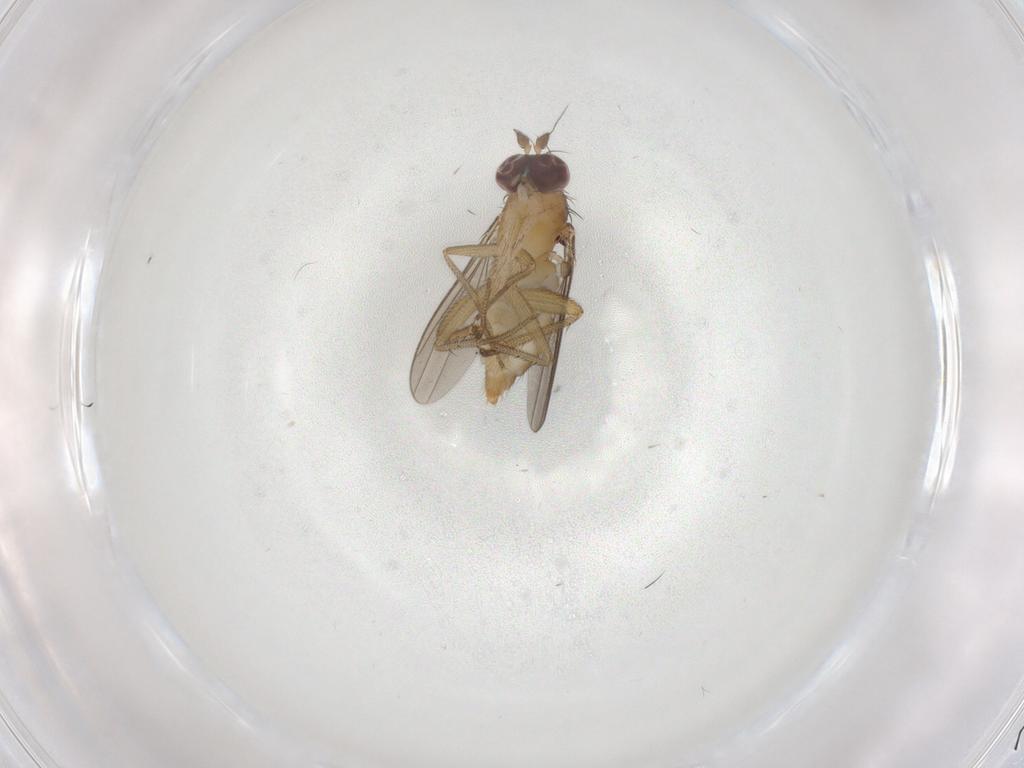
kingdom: Animalia
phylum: Arthropoda
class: Insecta
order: Diptera
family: Dolichopodidae
